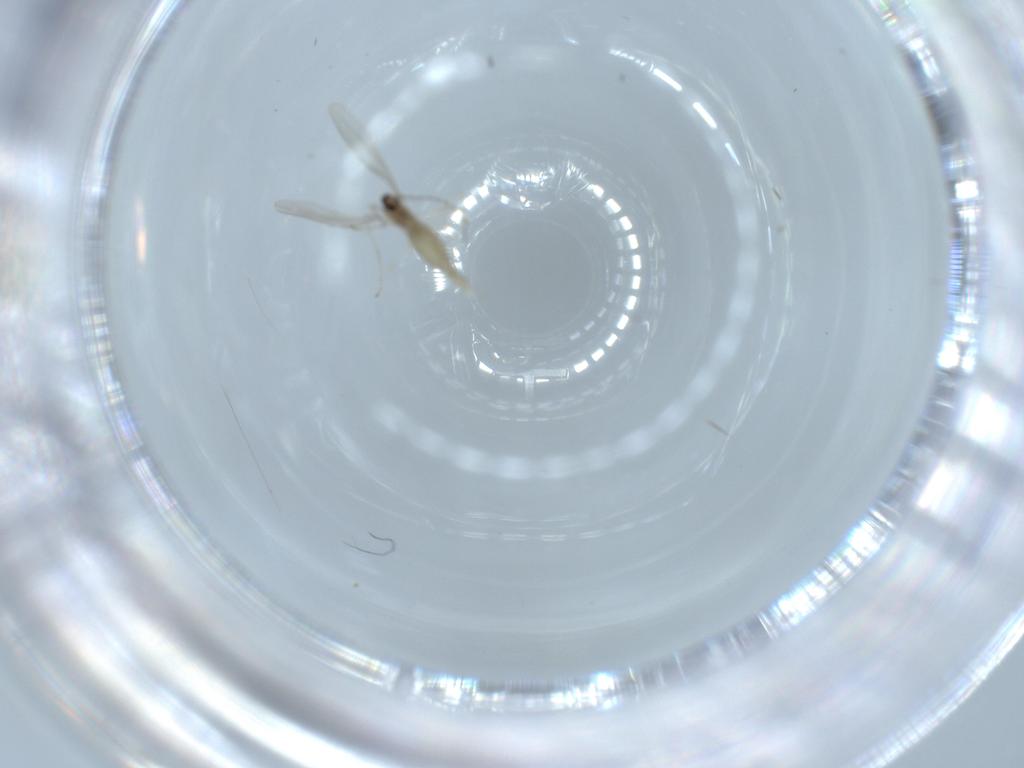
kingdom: Animalia
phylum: Arthropoda
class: Insecta
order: Diptera
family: Cecidomyiidae
